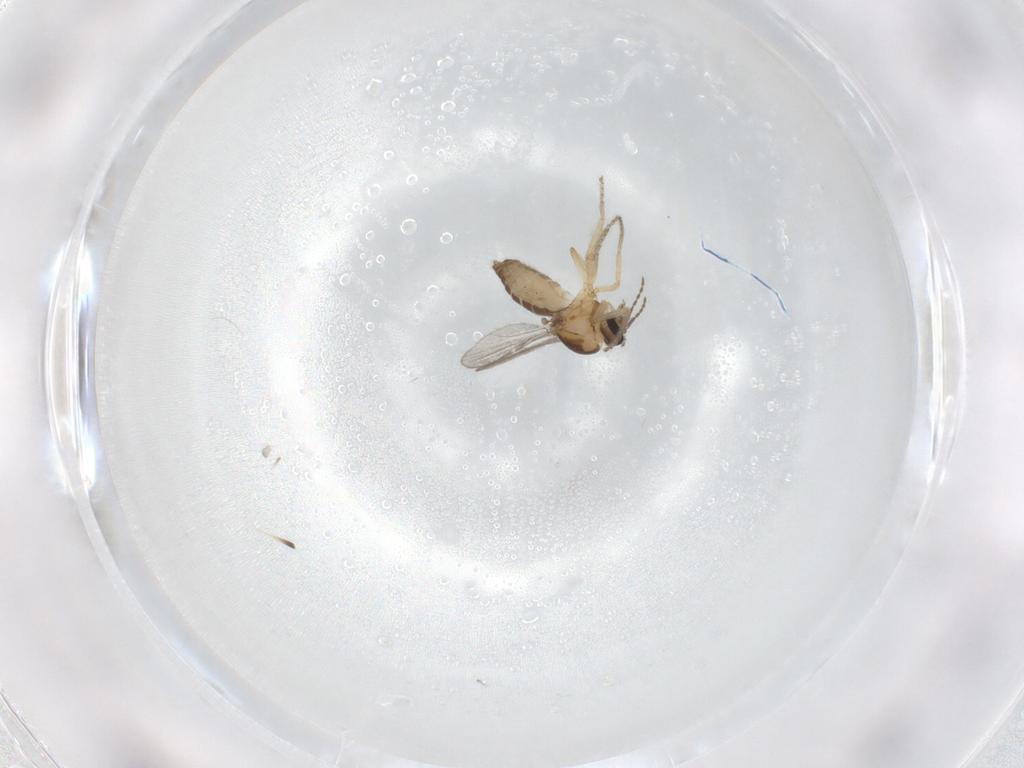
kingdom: Animalia
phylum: Arthropoda
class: Insecta
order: Diptera
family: Ceratopogonidae
